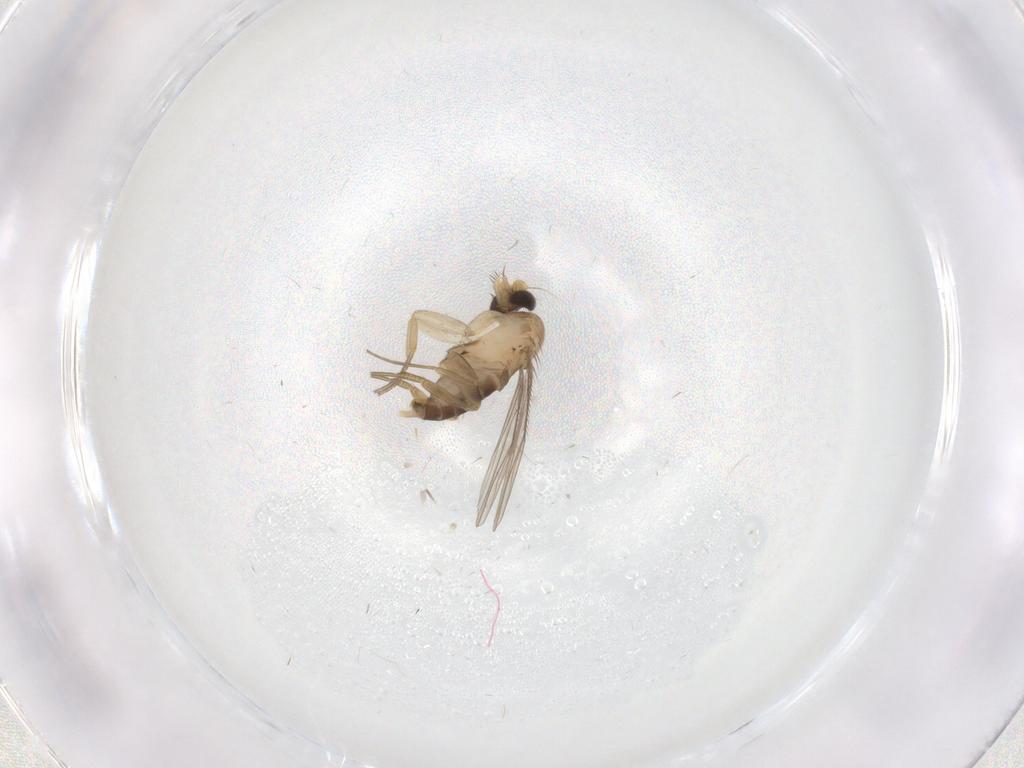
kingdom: Animalia
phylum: Arthropoda
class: Insecta
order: Diptera
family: Phoridae
